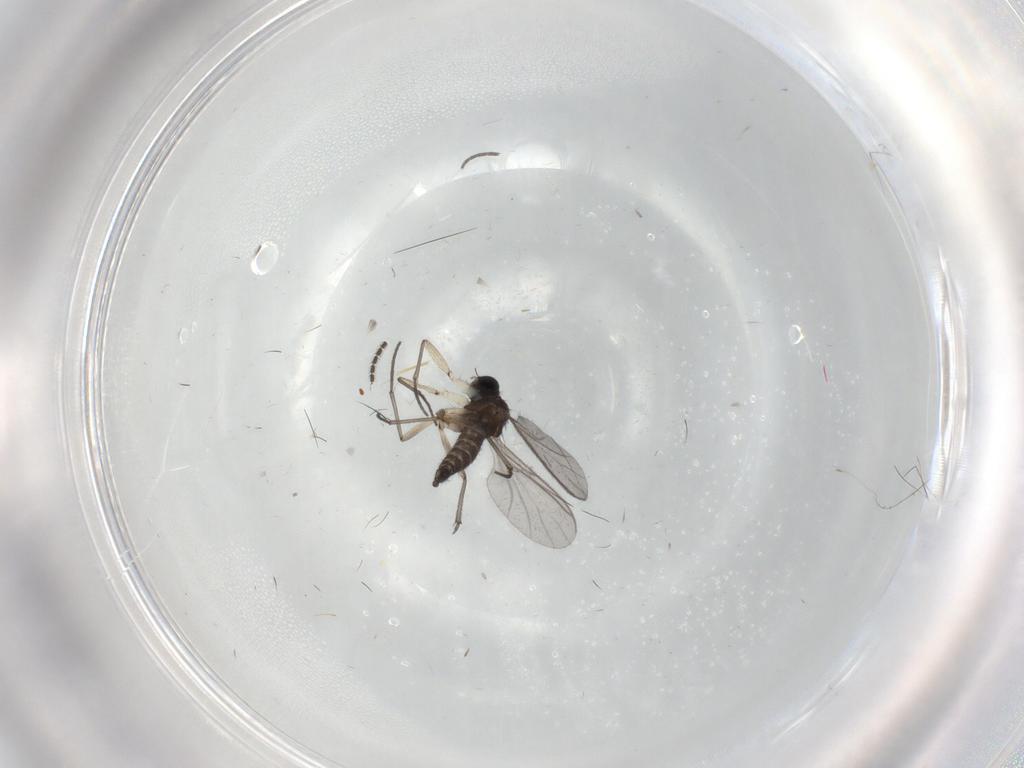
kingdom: Animalia
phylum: Arthropoda
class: Insecta
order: Diptera
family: Sciaridae
